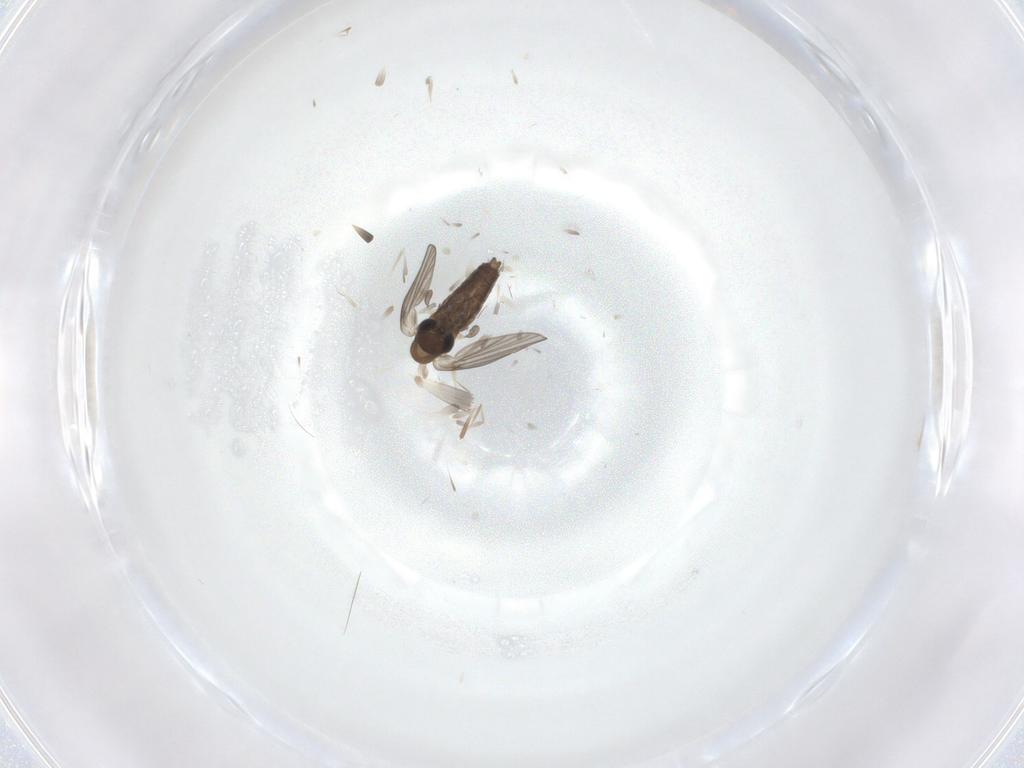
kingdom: Animalia
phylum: Arthropoda
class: Insecta
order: Diptera
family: Psychodidae
